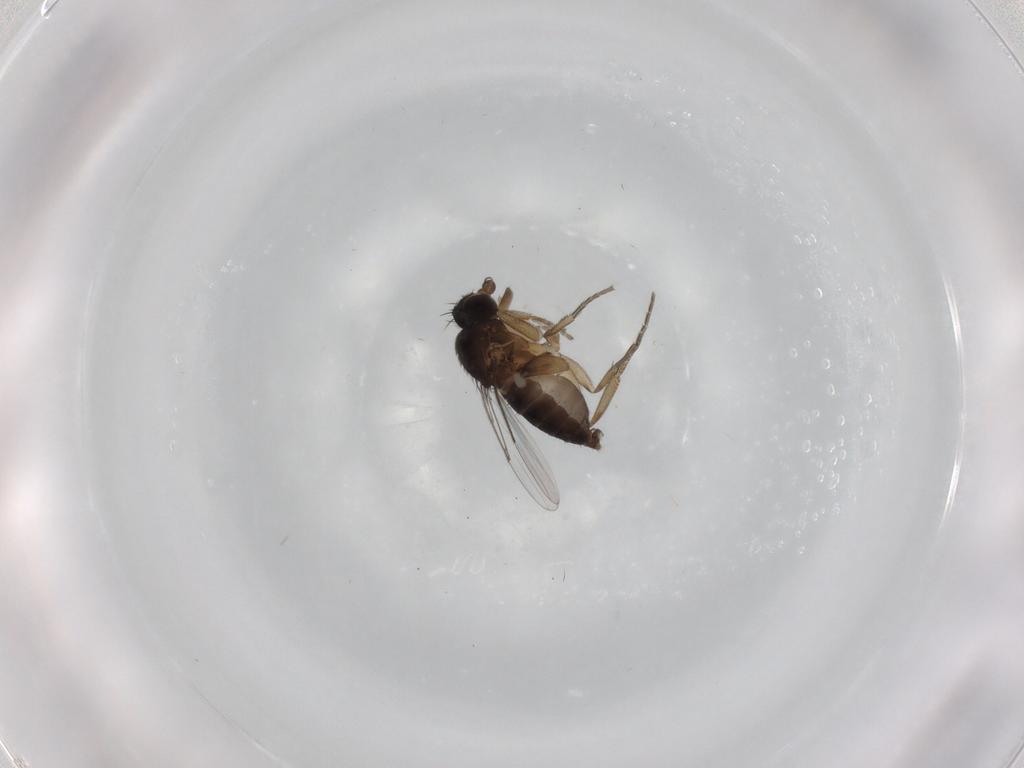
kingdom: Animalia
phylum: Arthropoda
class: Insecta
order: Diptera
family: Phoridae
